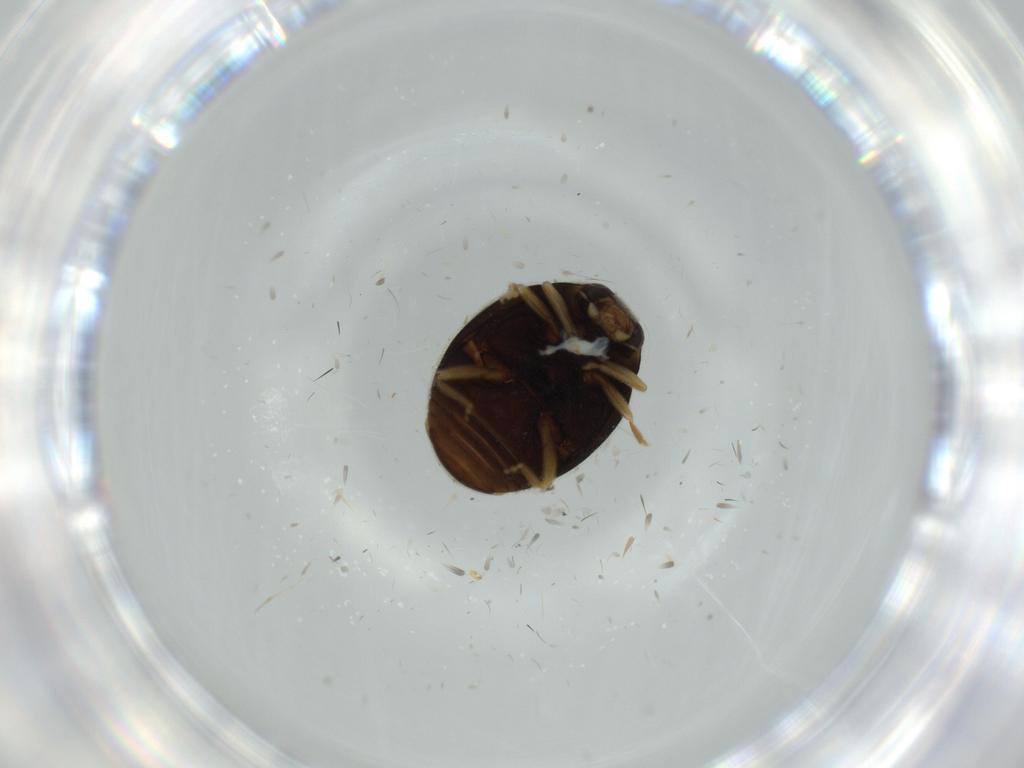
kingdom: Animalia
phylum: Arthropoda
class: Insecta
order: Coleoptera
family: Coccinellidae
